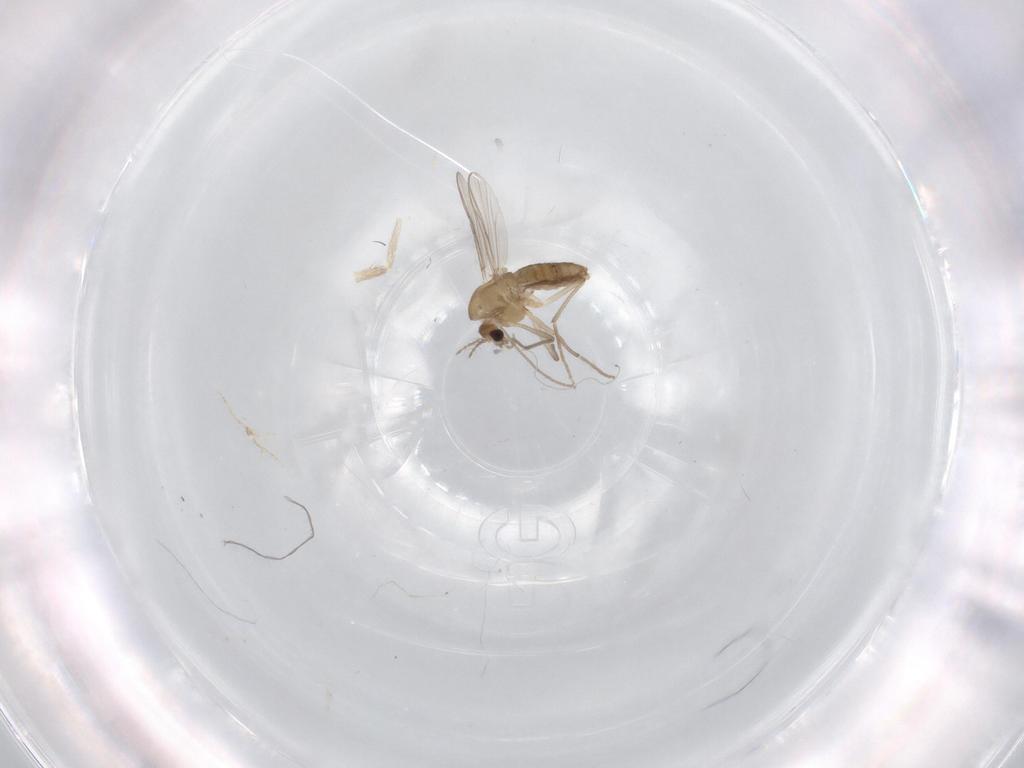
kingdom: Animalia
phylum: Arthropoda
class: Insecta
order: Diptera
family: Chironomidae
